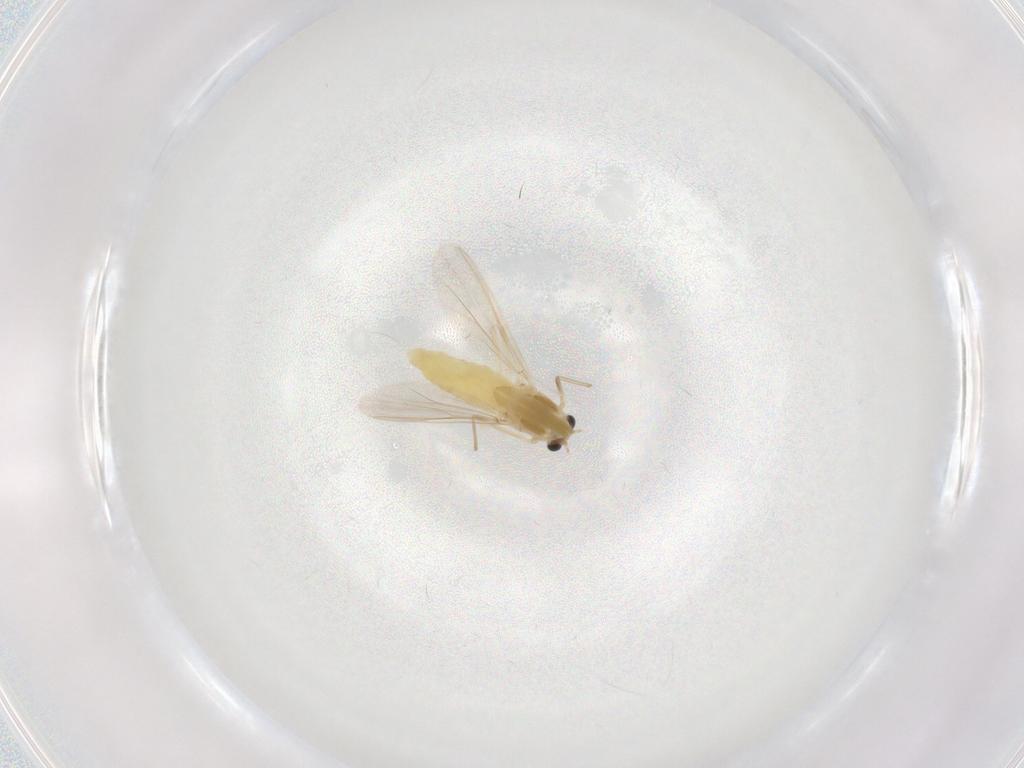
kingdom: Animalia
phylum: Arthropoda
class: Insecta
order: Diptera
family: Chironomidae
